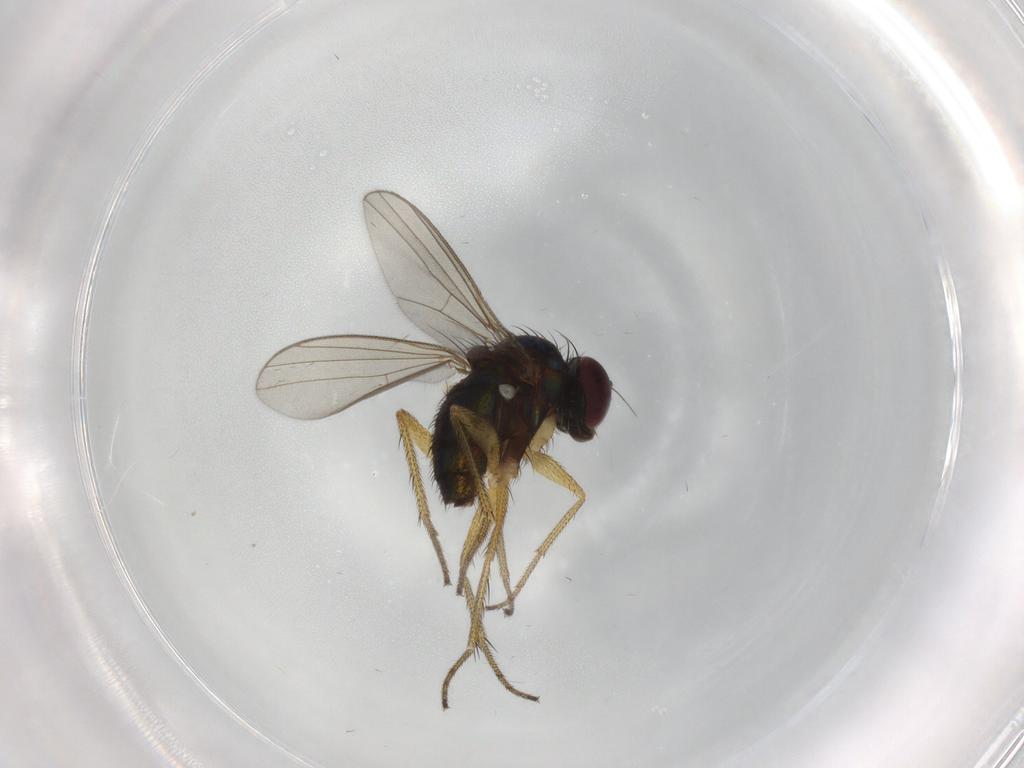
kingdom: Animalia
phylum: Arthropoda
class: Insecta
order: Diptera
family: Dolichopodidae
